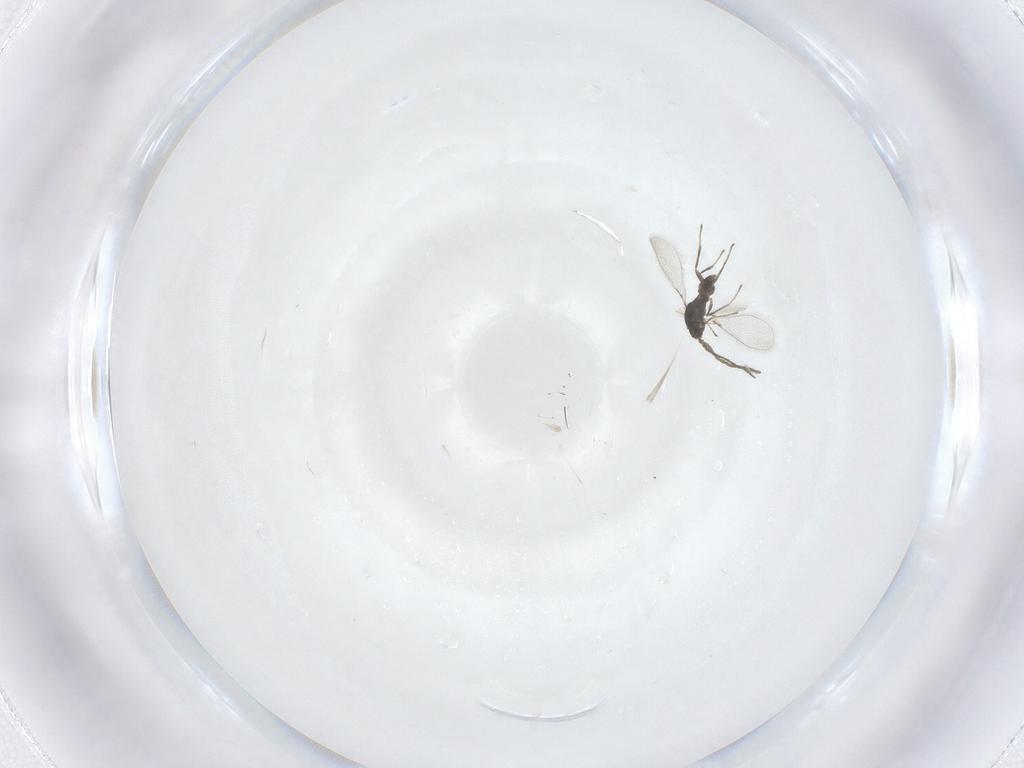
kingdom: Animalia
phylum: Arthropoda
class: Insecta
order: Hymenoptera
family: Mymaridae
